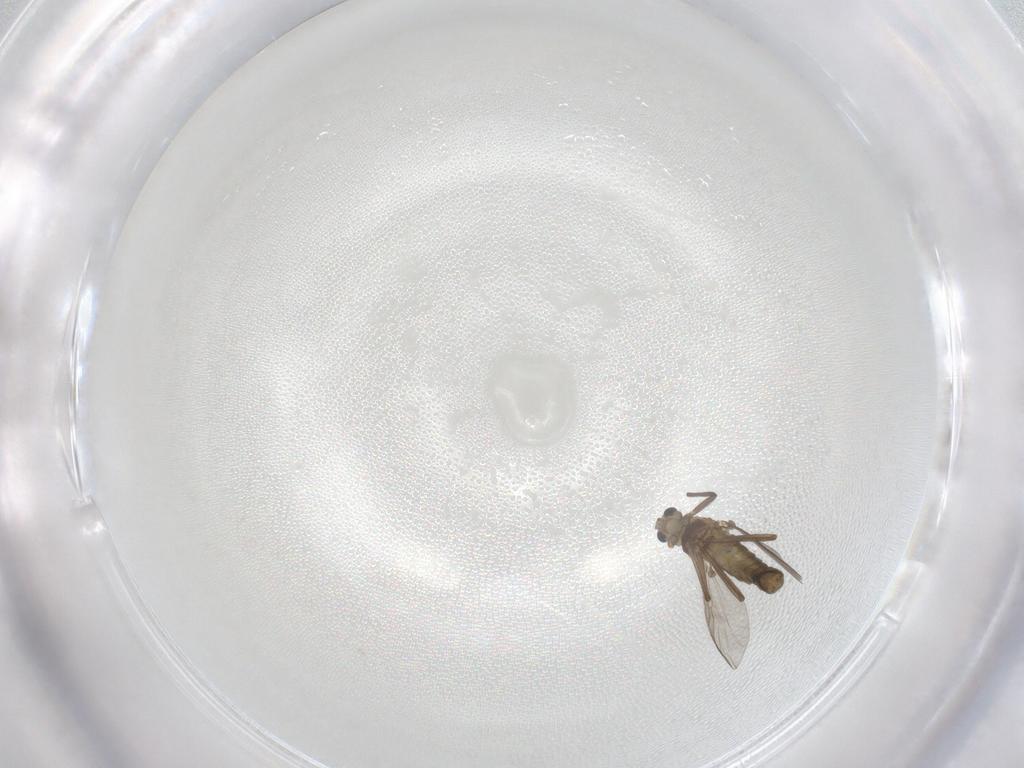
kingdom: Animalia
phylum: Arthropoda
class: Insecta
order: Diptera
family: Chironomidae
